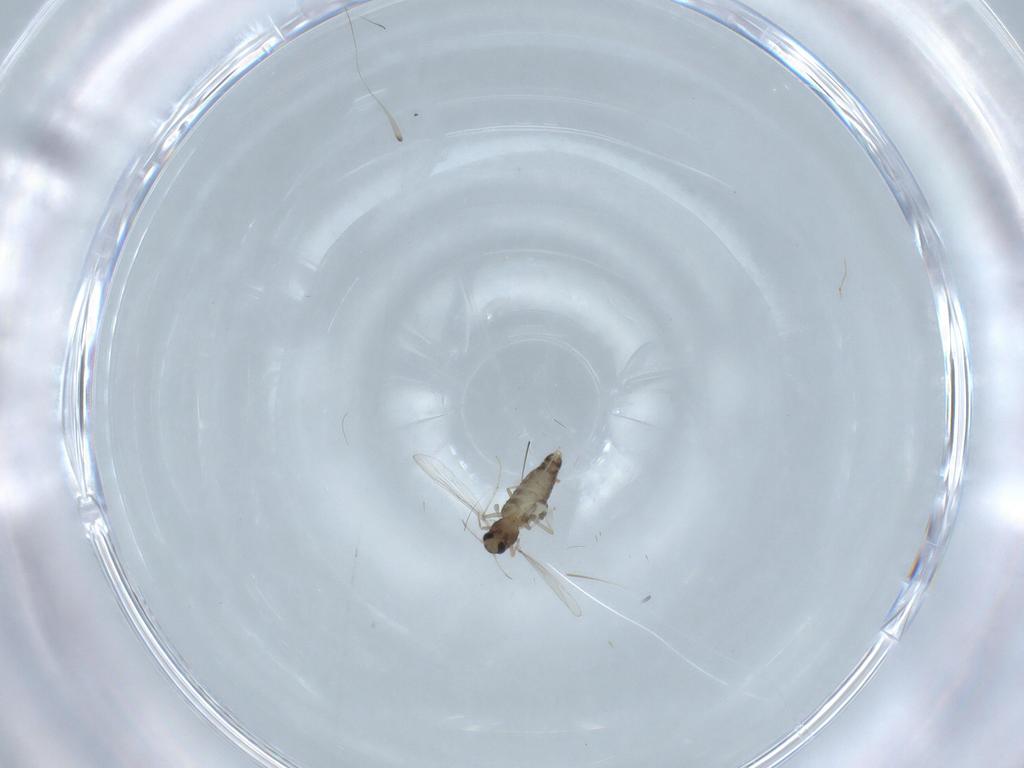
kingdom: Animalia
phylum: Arthropoda
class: Insecta
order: Diptera
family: Chironomidae
